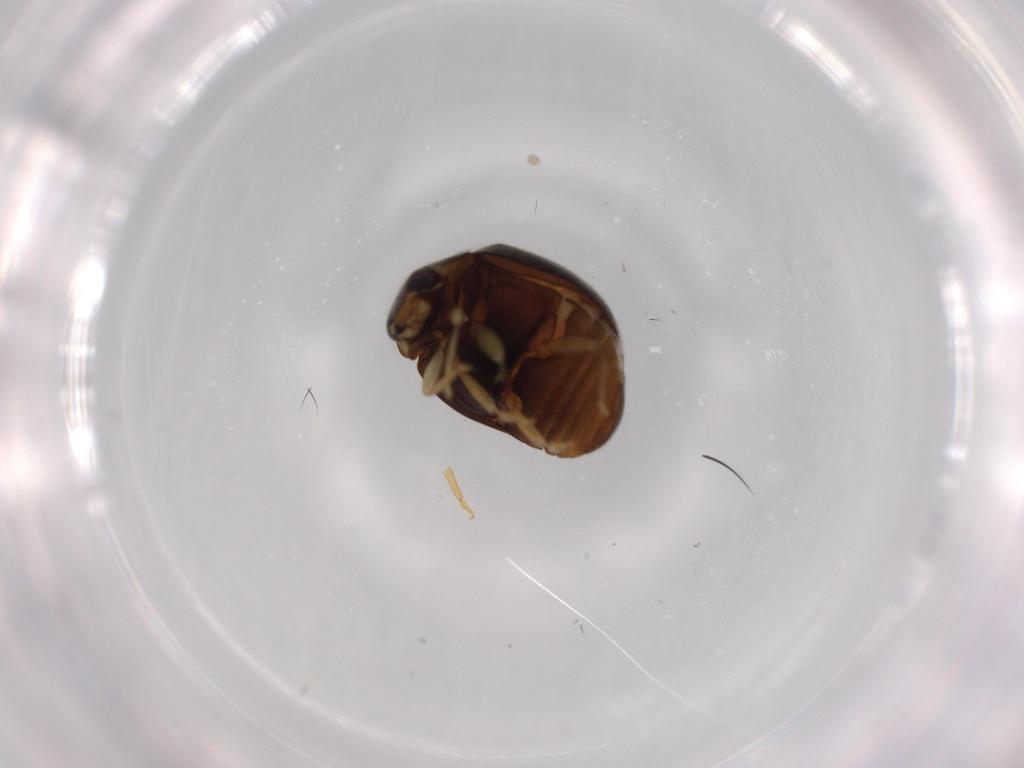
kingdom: Animalia
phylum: Arthropoda
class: Insecta
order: Coleoptera
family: Coccinellidae
